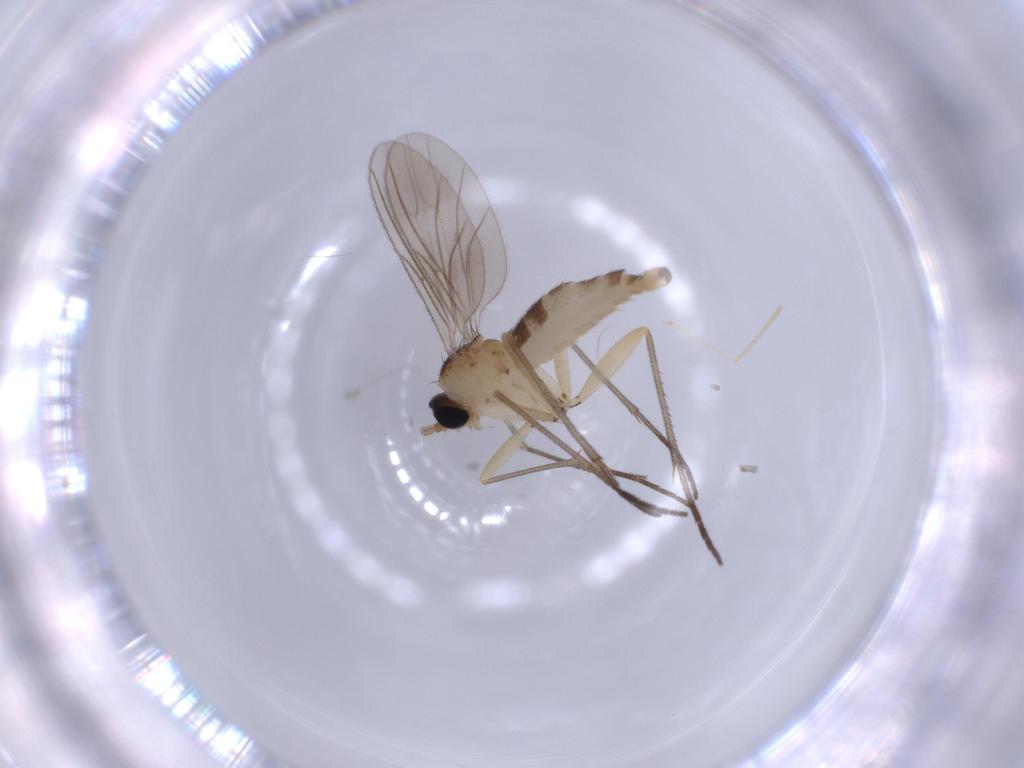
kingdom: Animalia
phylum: Arthropoda
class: Insecta
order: Diptera
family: Sciaridae
